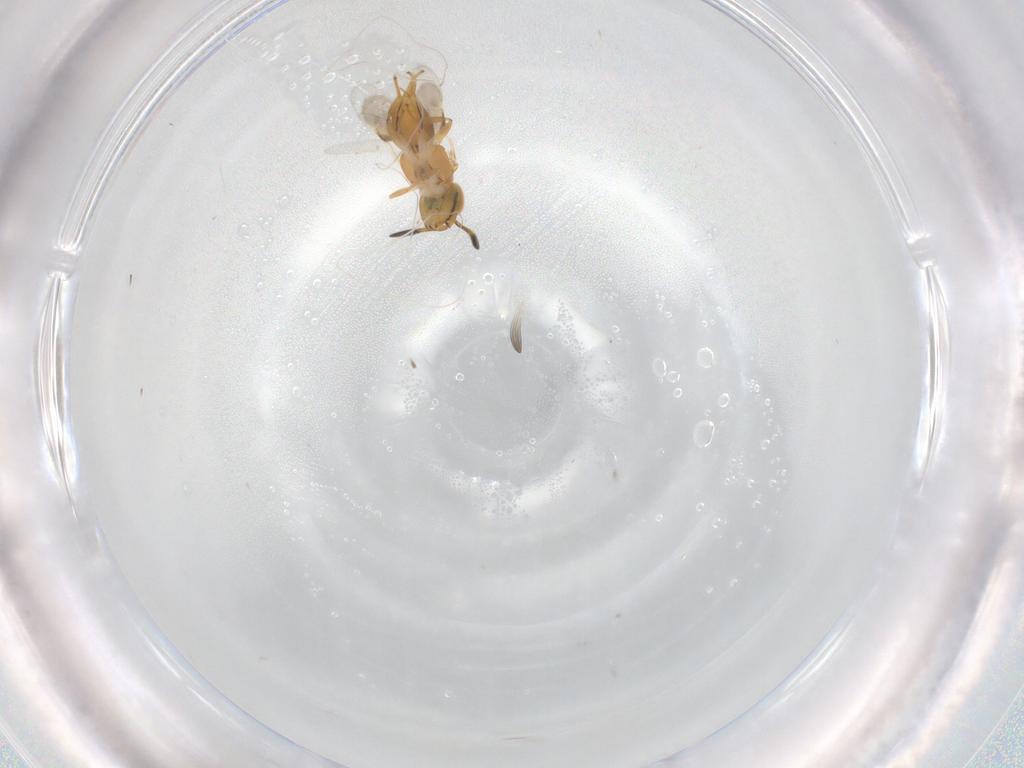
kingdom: Animalia
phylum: Arthropoda
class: Insecta
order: Hymenoptera
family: Encyrtidae
